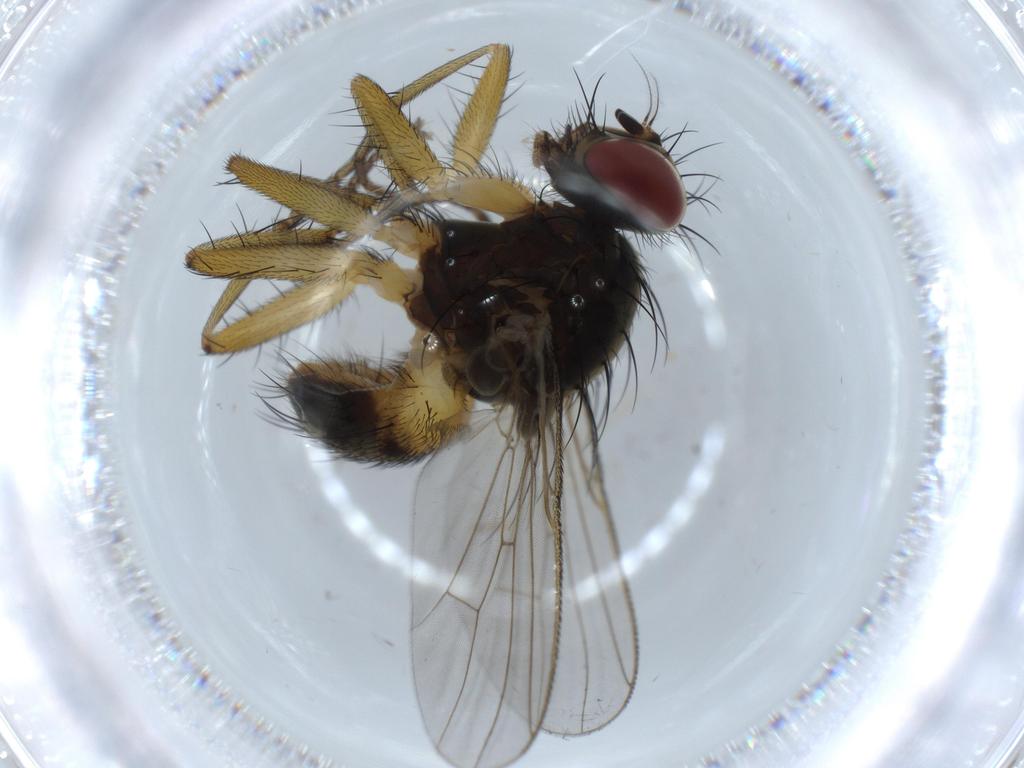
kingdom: Animalia
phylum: Arthropoda
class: Insecta
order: Diptera
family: Muscidae
